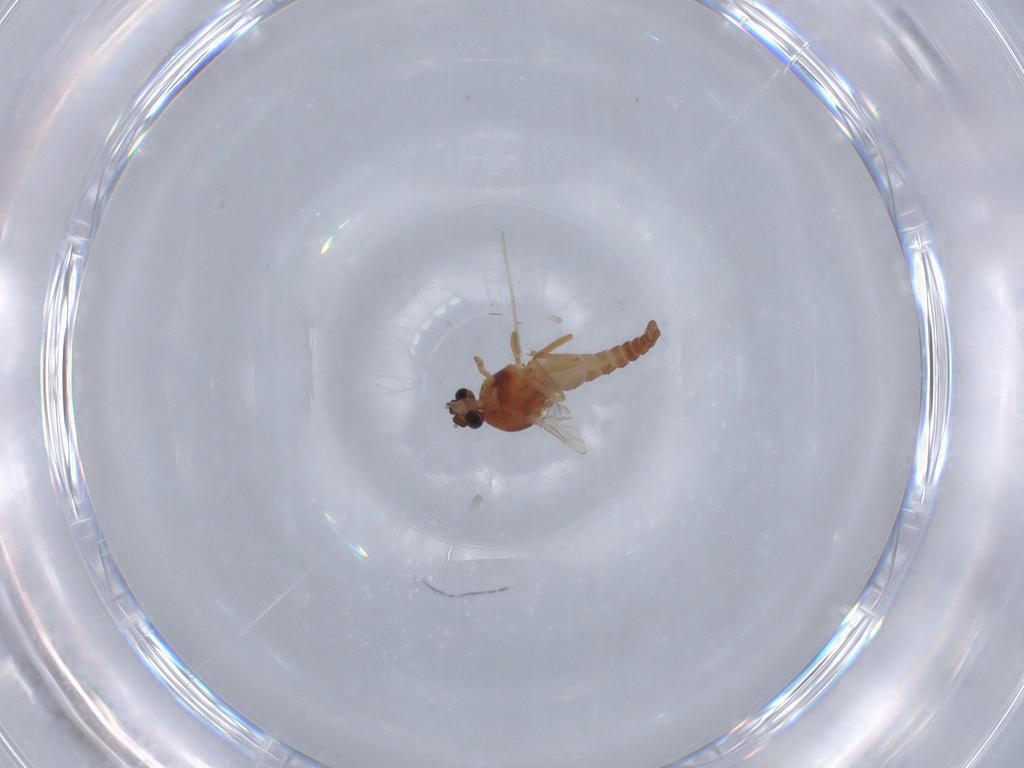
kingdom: Animalia
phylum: Arthropoda
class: Insecta
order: Diptera
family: Ceratopogonidae
